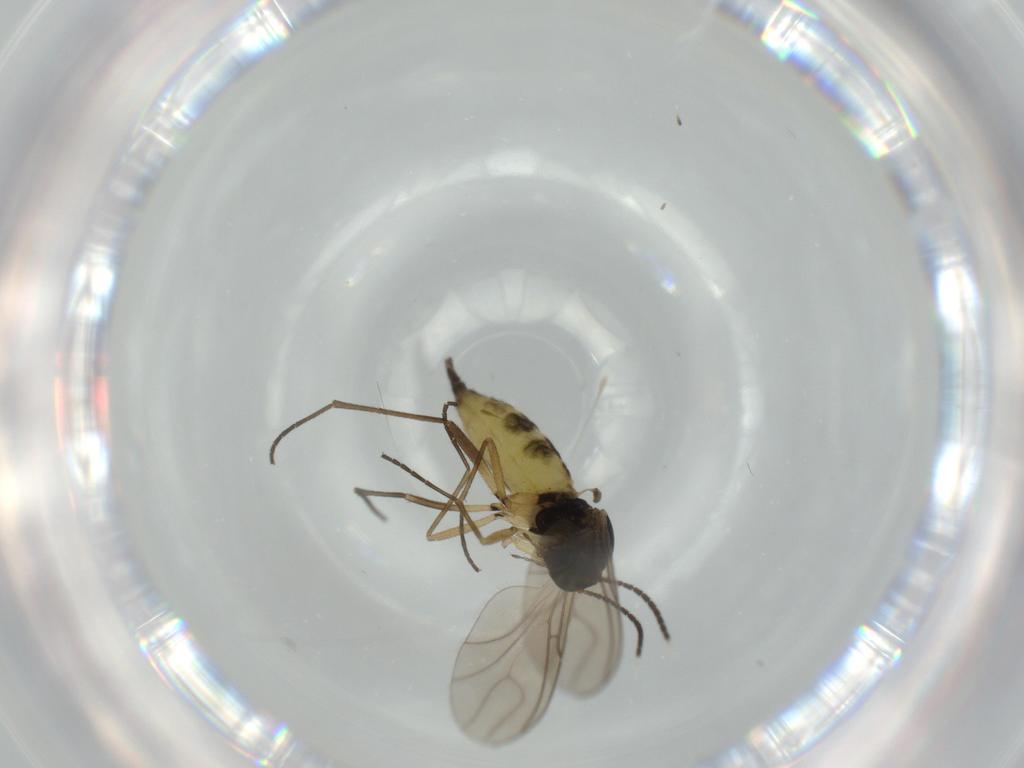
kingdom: Animalia
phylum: Arthropoda
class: Insecta
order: Diptera
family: Sciaridae
